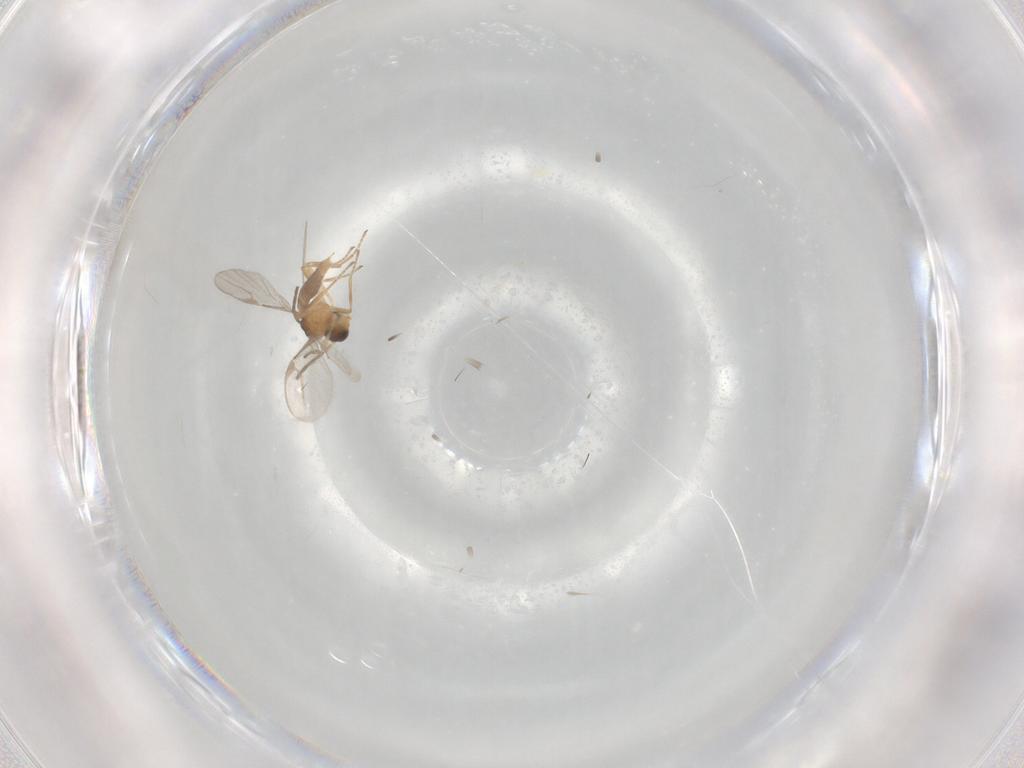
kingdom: Animalia
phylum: Arthropoda
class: Insecta
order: Hymenoptera
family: Braconidae
